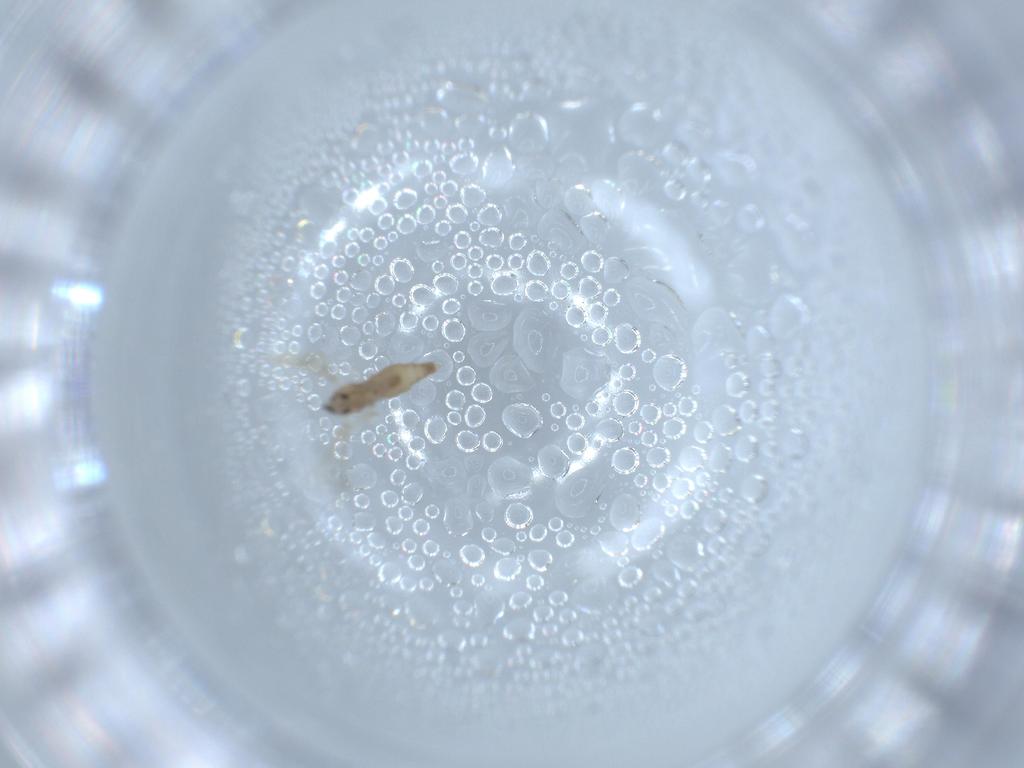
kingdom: Animalia
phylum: Arthropoda
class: Insecta
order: Diptera
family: Cecidomyiidae
